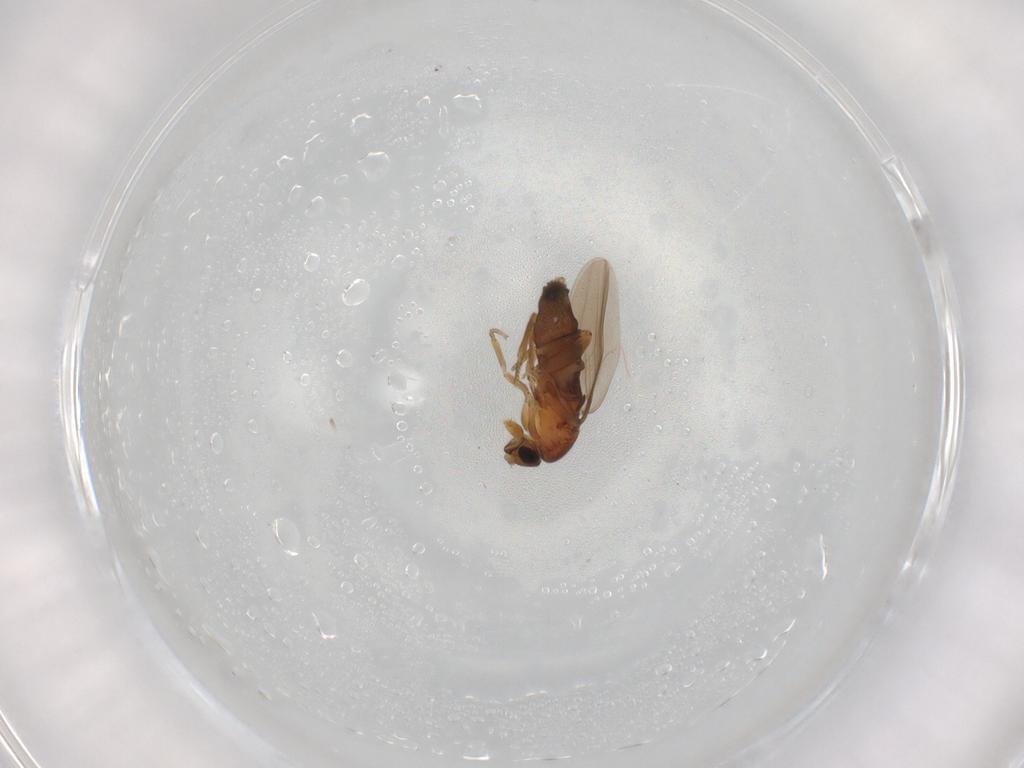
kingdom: Animalia
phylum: Arthropoda
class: Insecta
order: Diptera
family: Phoridae
